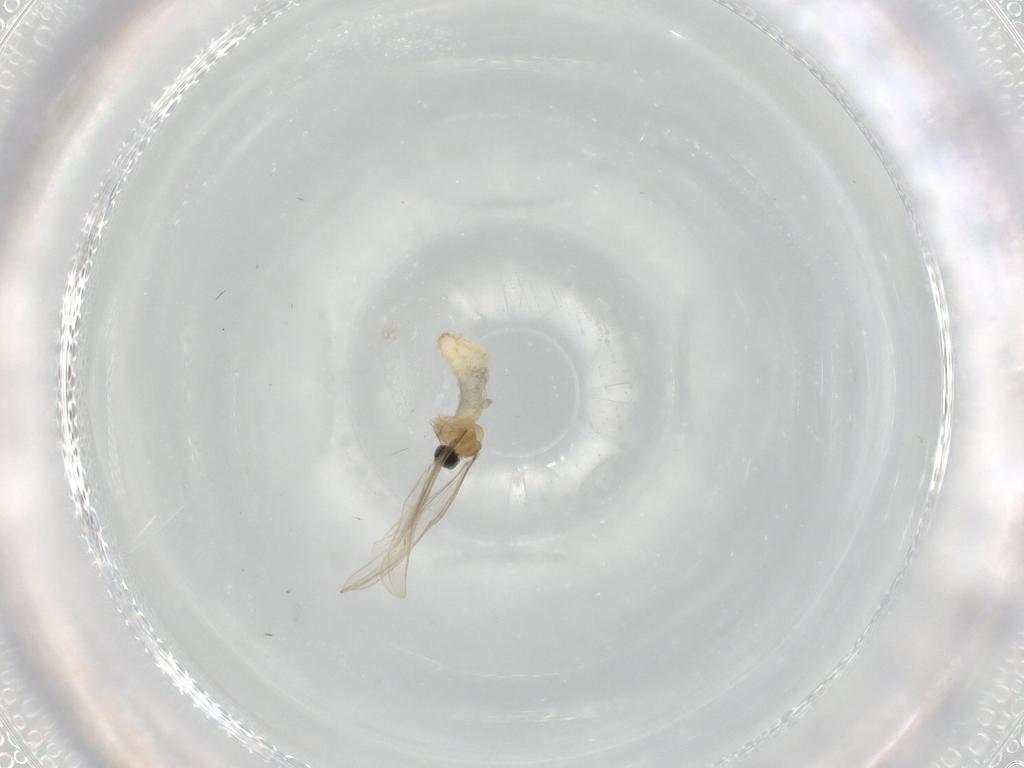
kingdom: Animalia
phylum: Arthropoda
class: Insecta
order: Diptera
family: Cecidomyiidae
